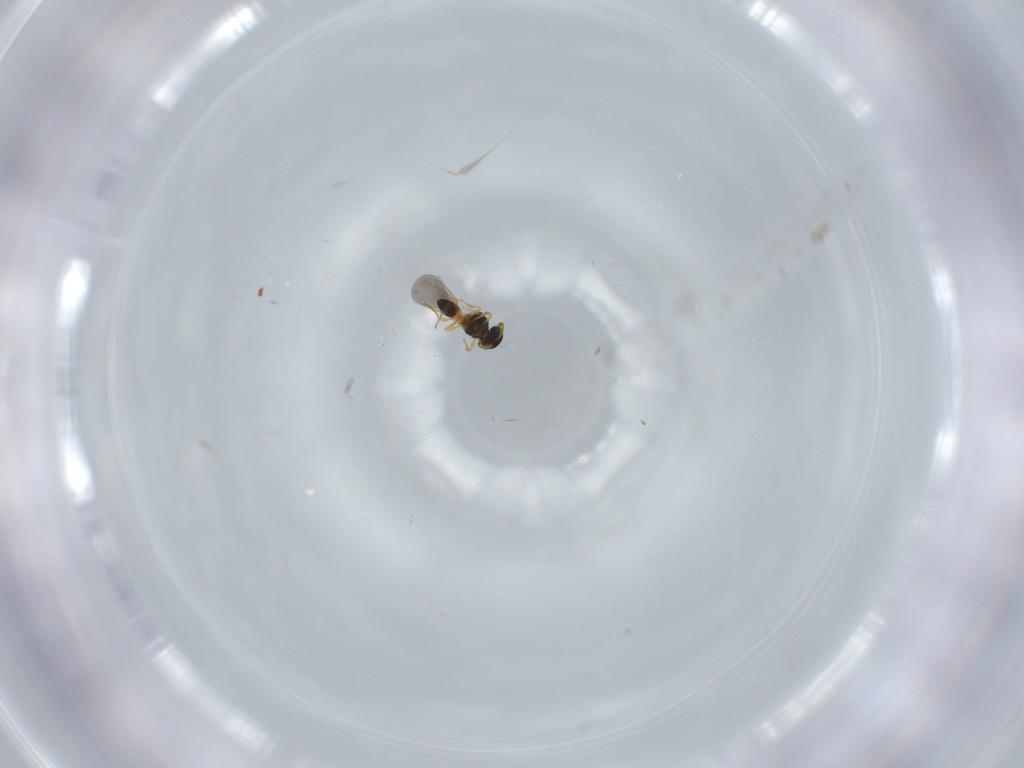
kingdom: Animalia
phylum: Arthropoda
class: Insecta
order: Hymenoptera
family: Platygastridae
